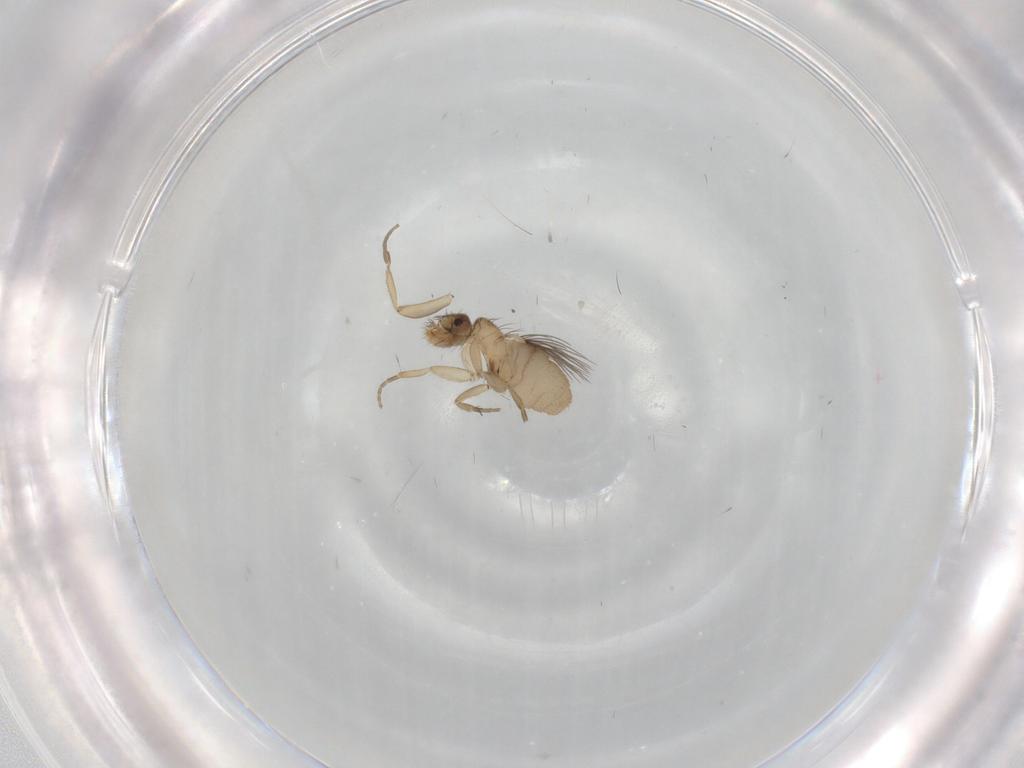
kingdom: Animalia
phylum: Arthropoda
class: Insecta
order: Diptera
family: Phoridae
